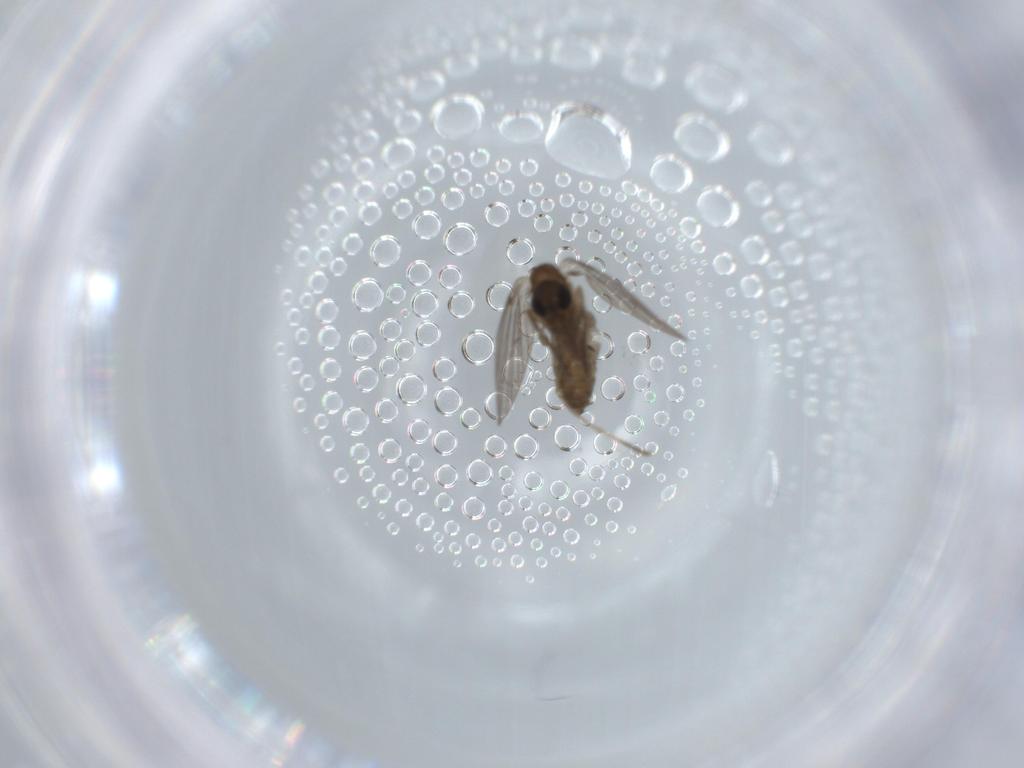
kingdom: Animalia
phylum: Arthropoda
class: Insecta
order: Diptera
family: Psychodidae
